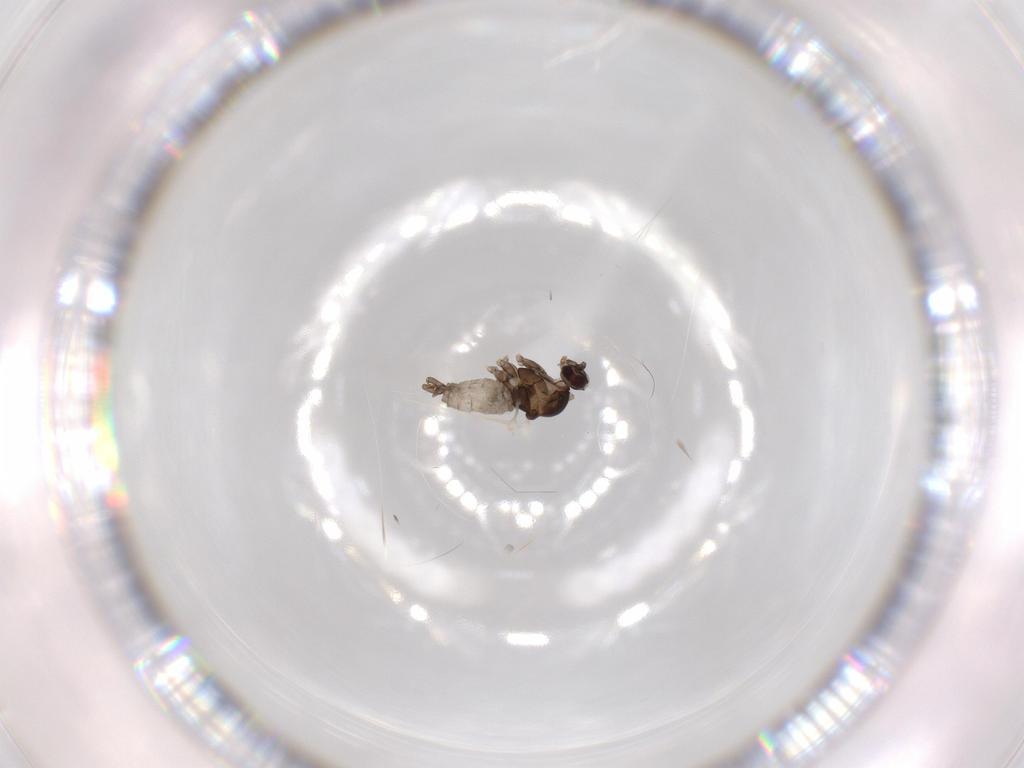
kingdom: Animalia
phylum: Arthropoda
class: Insecta
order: Diptera
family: Cecidomyiidae
